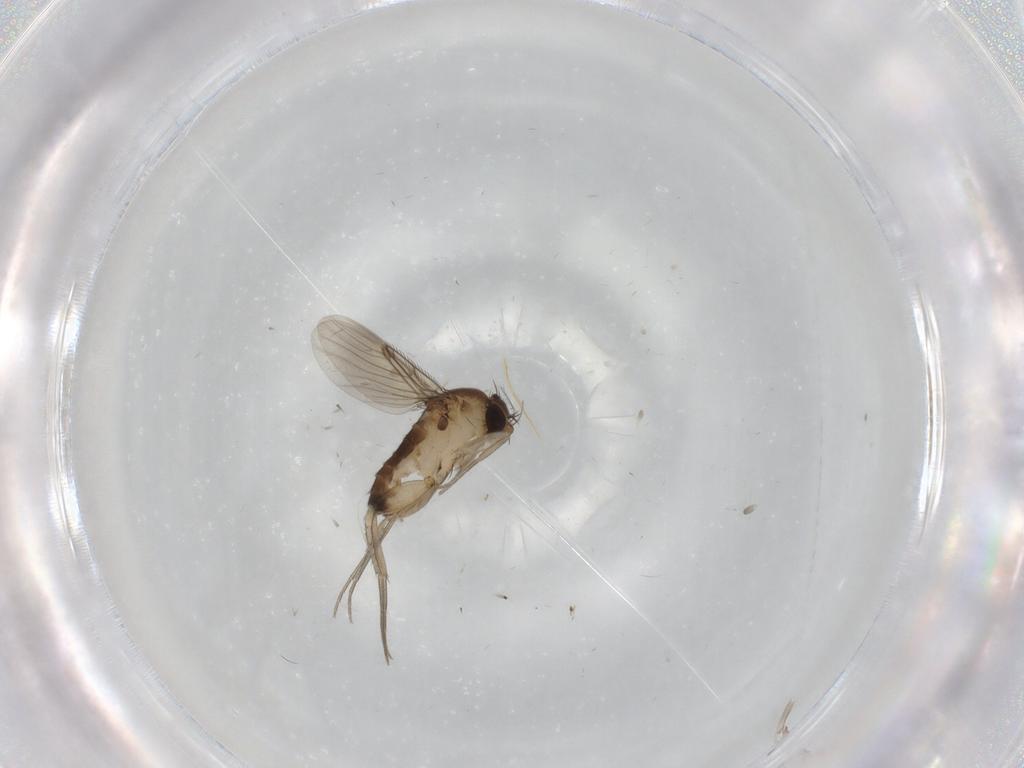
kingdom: Animalia
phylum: Arthropoda
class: Insecta
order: Diptera
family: Phoridae
